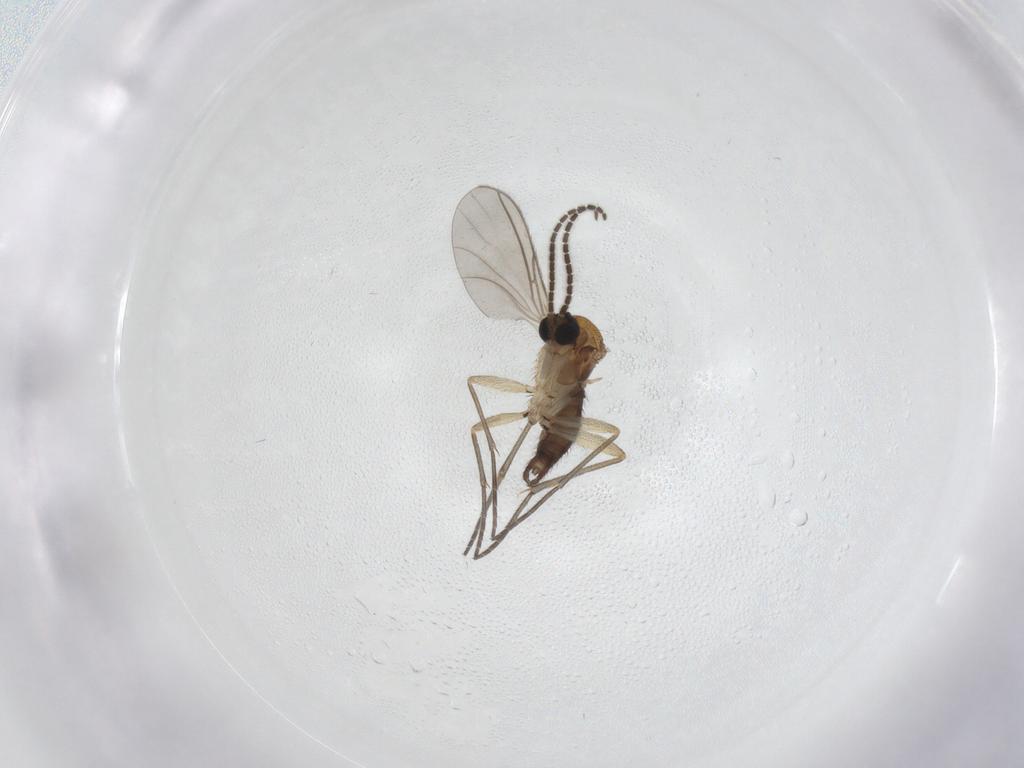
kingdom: Animalia
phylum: Arthropoda
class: Insecta
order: Diptera
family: Sciaridae
